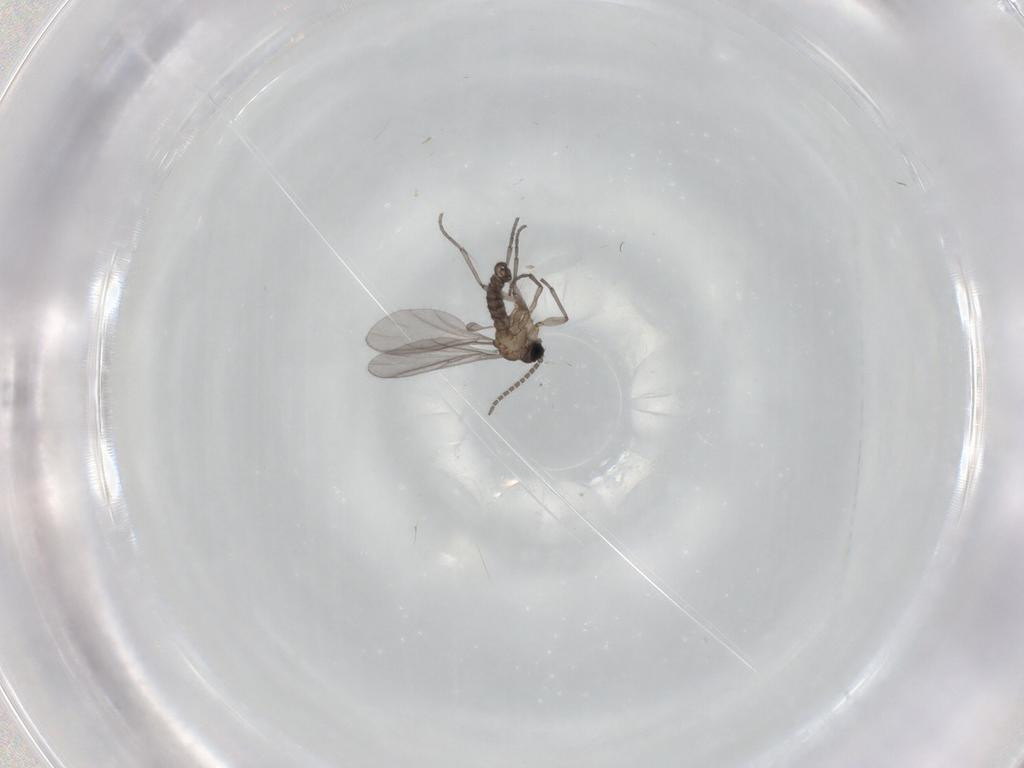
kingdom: Animalia
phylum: Arthropoda
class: Insecta
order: Diptera
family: Sciaridae
